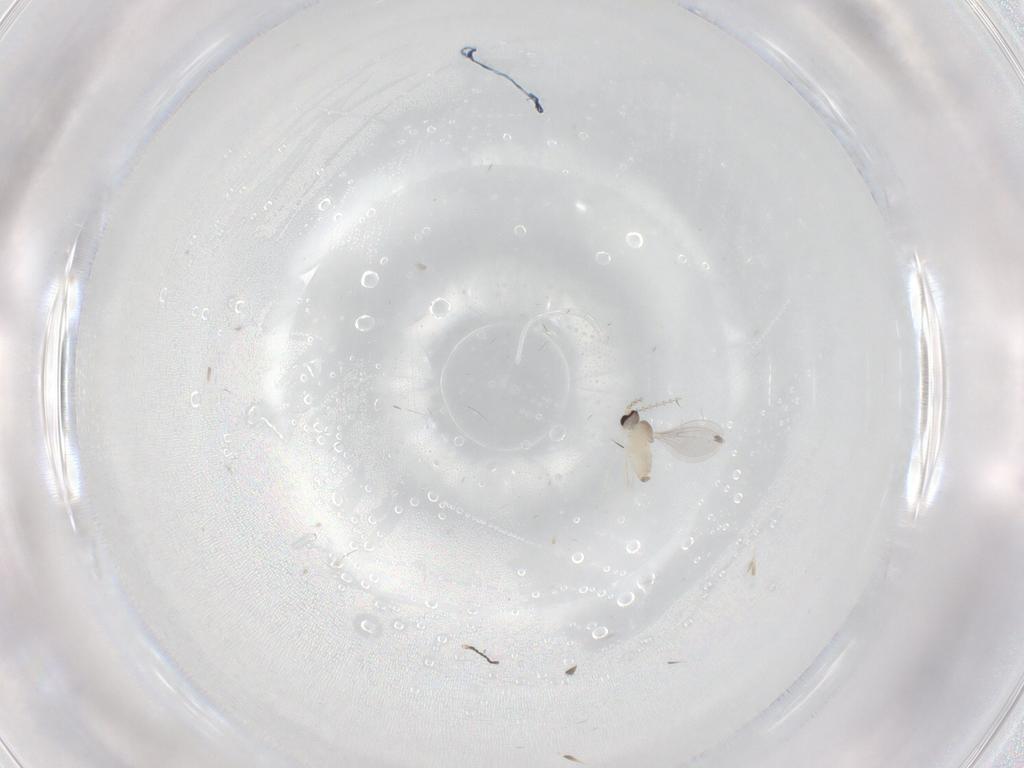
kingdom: Animalia
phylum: Arthropoda
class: Insecta
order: Diptera
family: Cecidomyiidae
